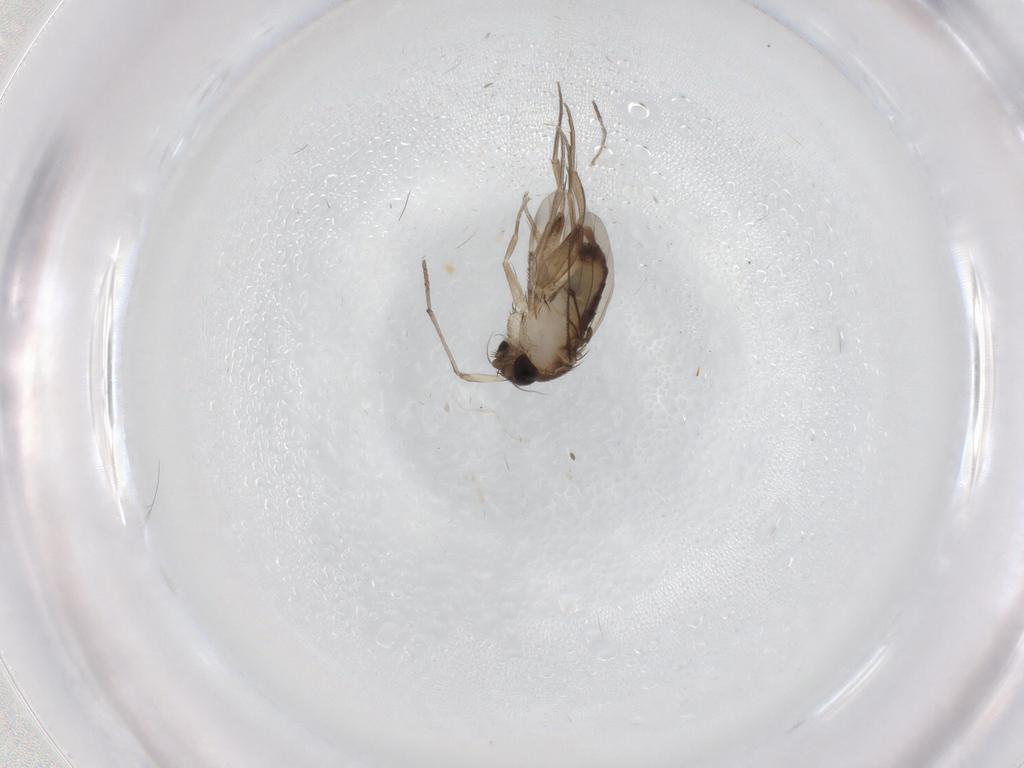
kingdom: Animalia
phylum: Arthropoda
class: Insecta
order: Diptera
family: Phoridae
